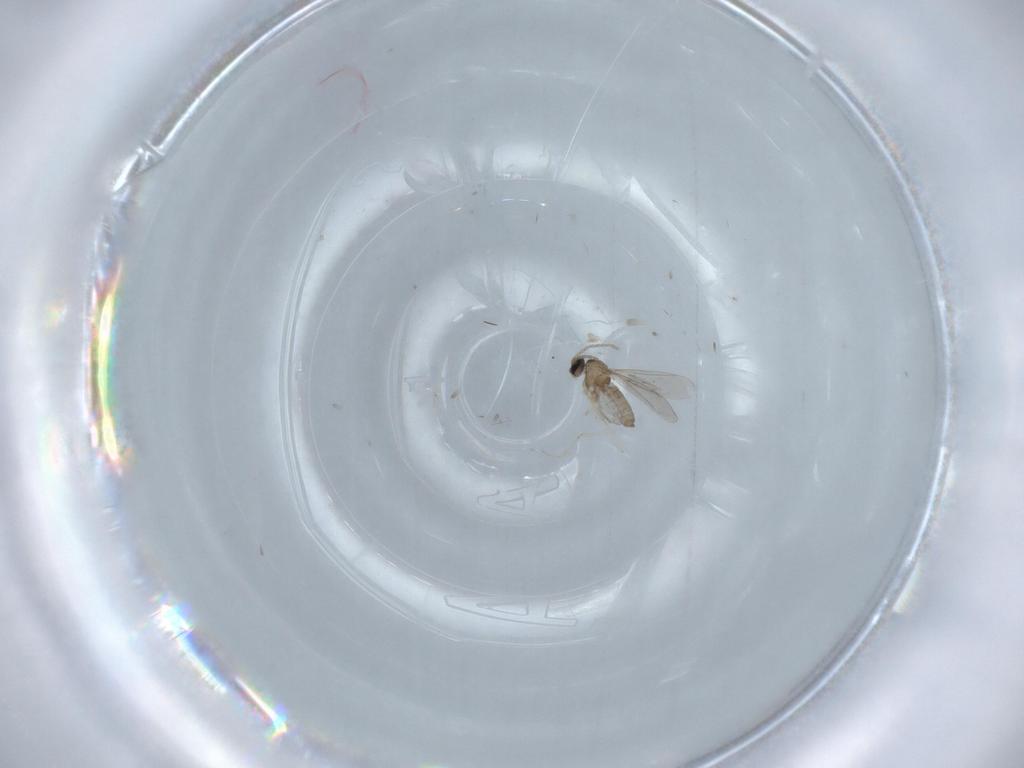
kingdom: Animalia
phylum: Arthropoda
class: Insecta
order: Diptera
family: Cecidomyiidae
